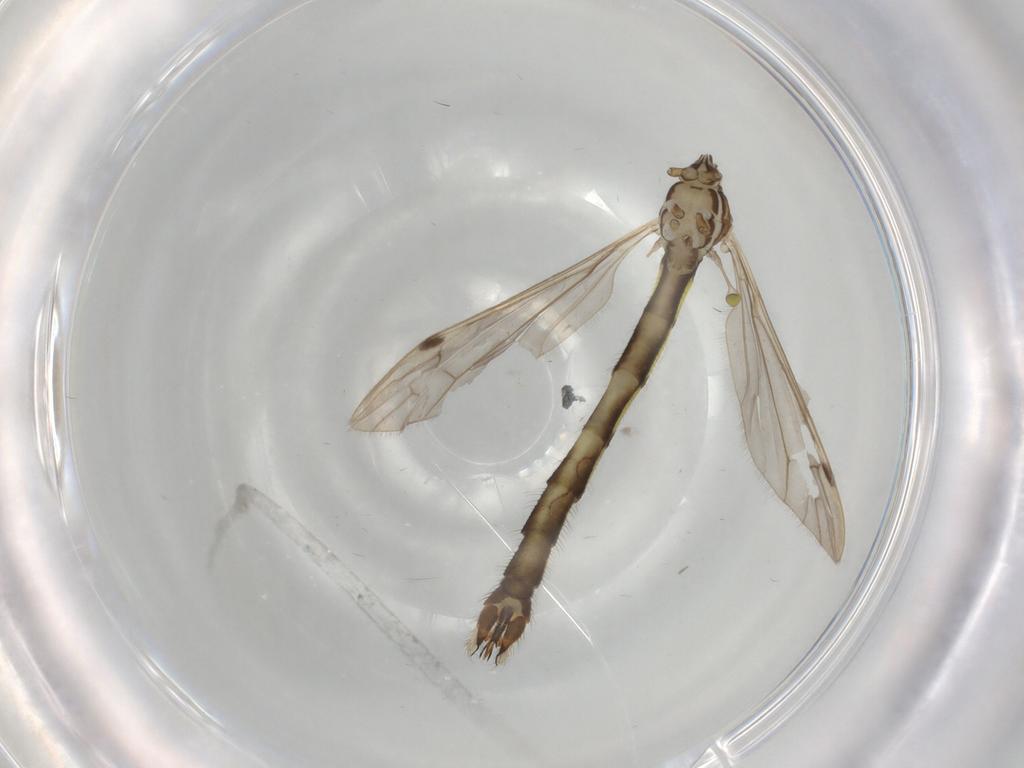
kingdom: Animalia
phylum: Arthropoda
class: Insecta
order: Diptera
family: Limoniidae
